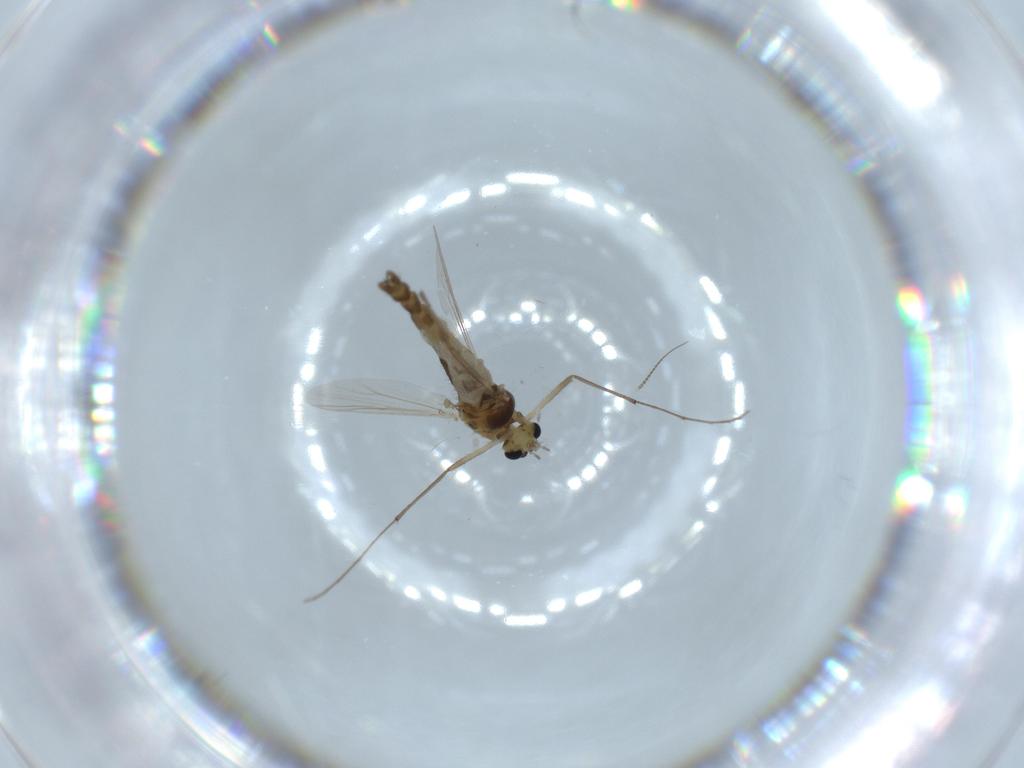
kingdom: Animalia
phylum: Arthropoda
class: Insecta
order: Diptera
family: Chironomidae
